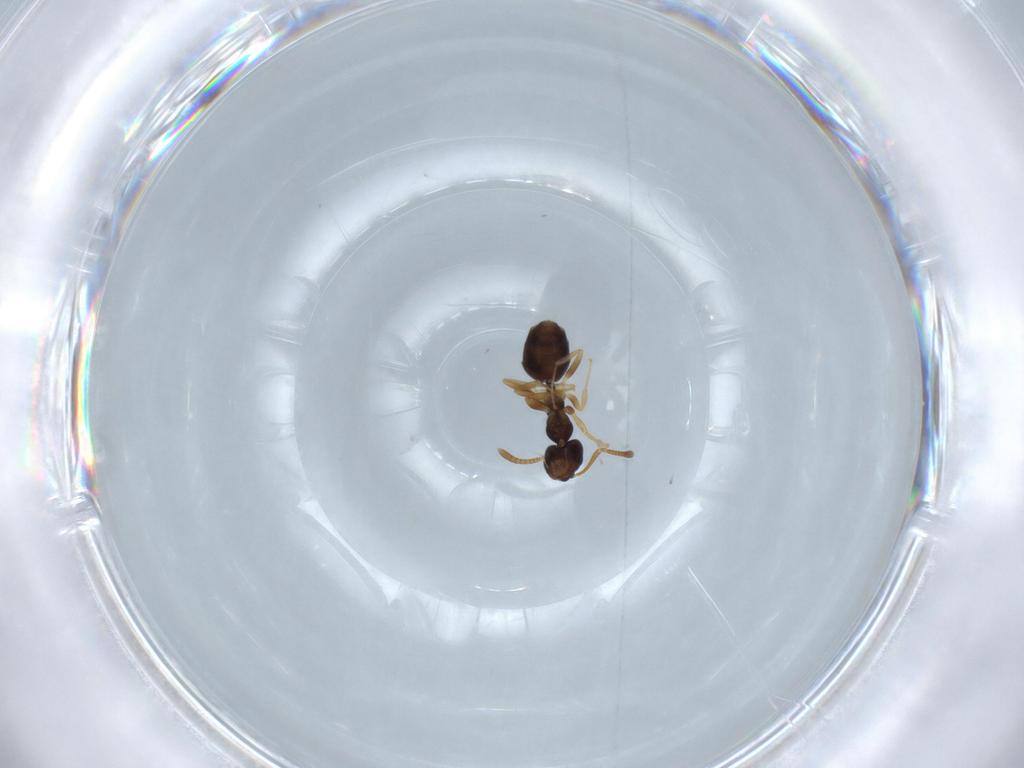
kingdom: Animalia
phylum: Arthropoda
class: Insecta
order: Hymenoptera
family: Formicidae
